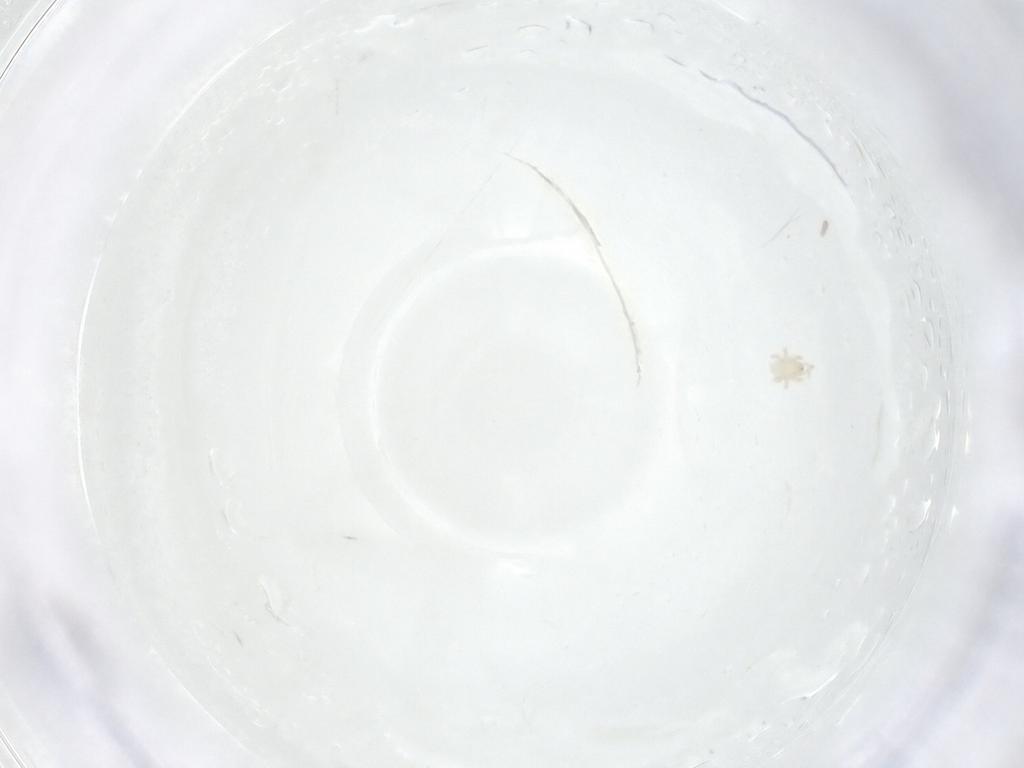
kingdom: Animalia
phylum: Arthropoda
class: Arachnida
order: Mesostigmata
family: Melicharidae
